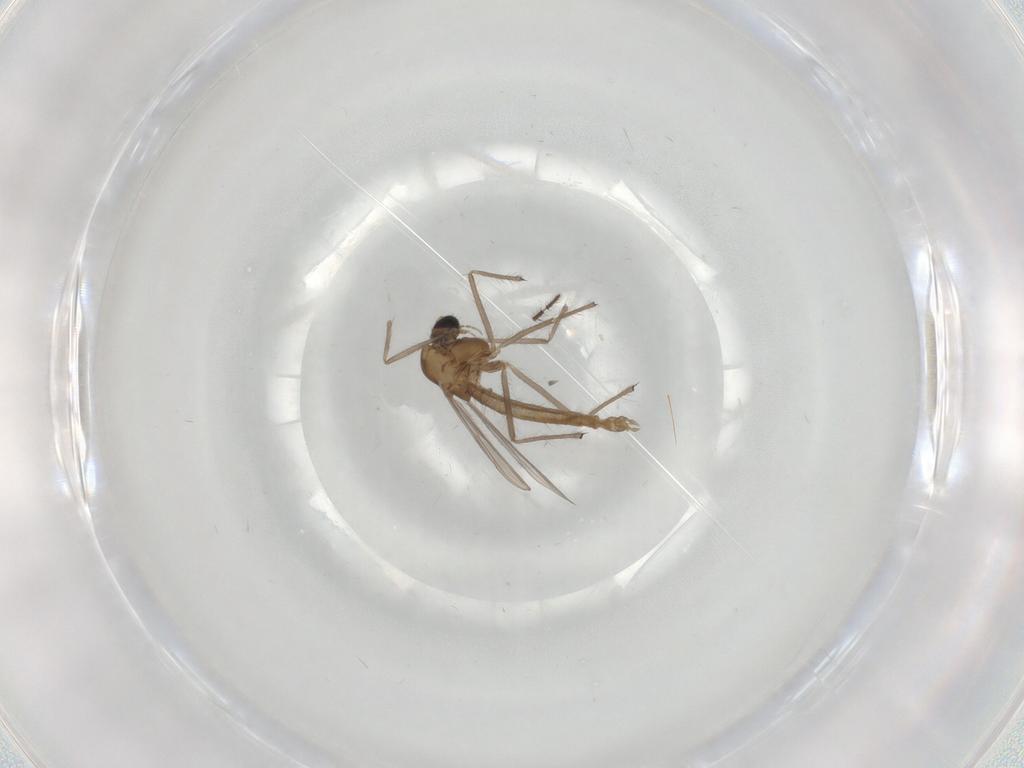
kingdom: Animalia
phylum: Arthropoda
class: Insecta
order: Diptera
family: Chironomidae
